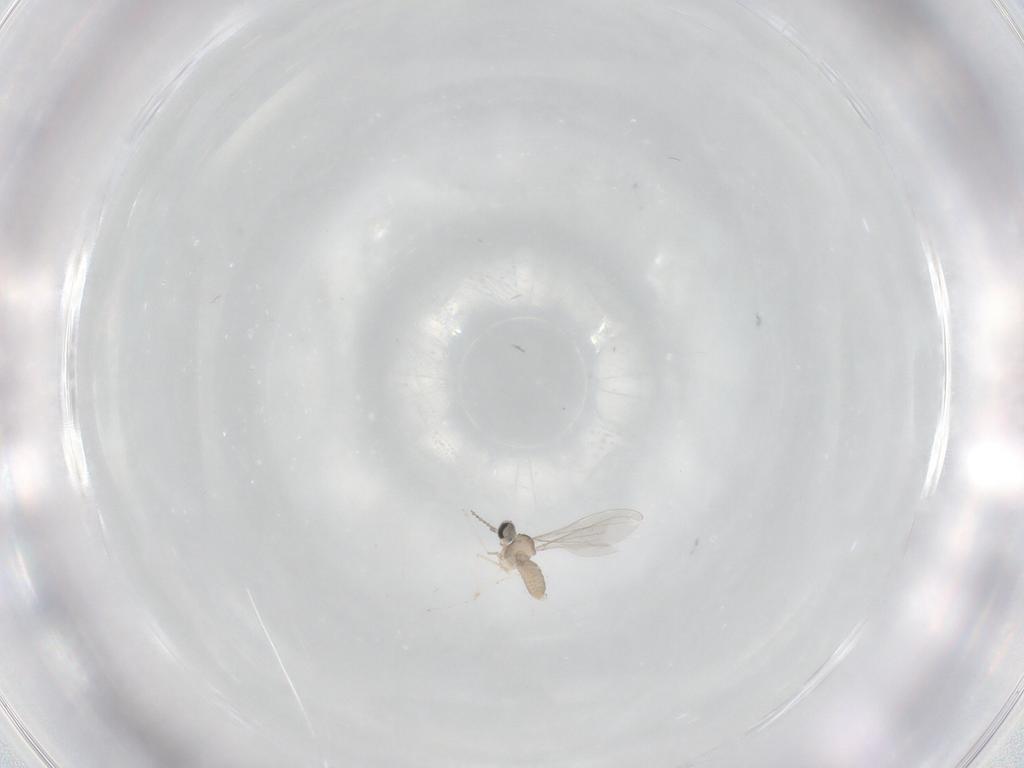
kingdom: Animalia
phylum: Arthropoda
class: Insecta
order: Diptera
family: Cecidomyiidae
